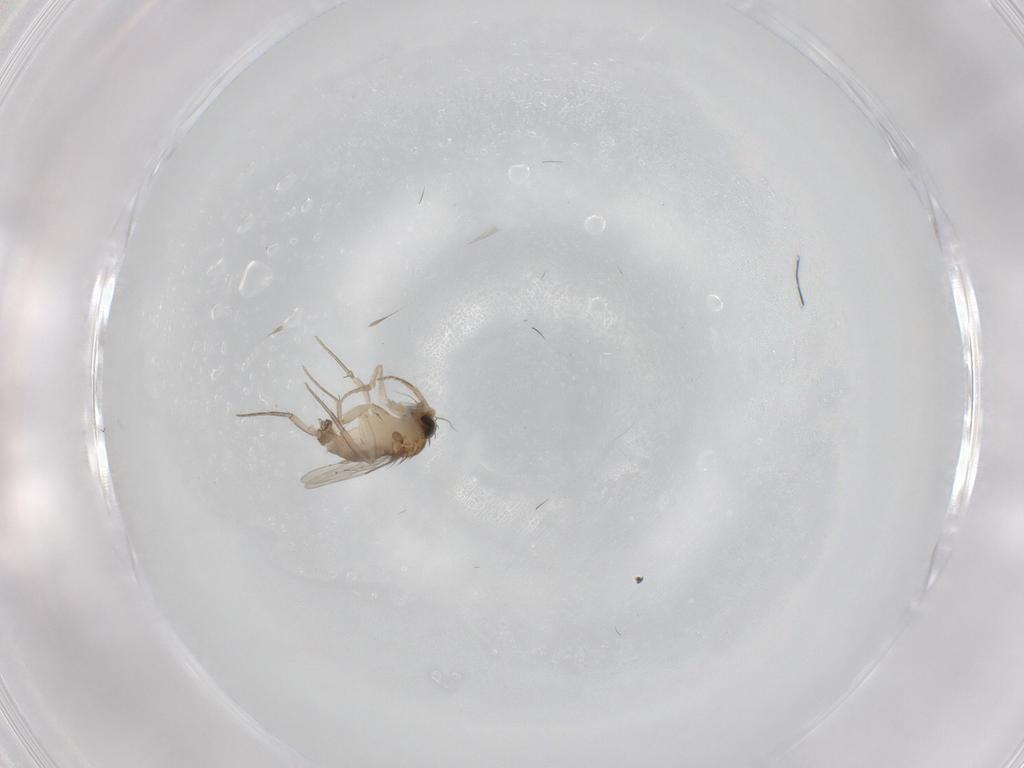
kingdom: Animalia
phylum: Arthropoda
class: Insecta
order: Diptera
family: Phoridae
